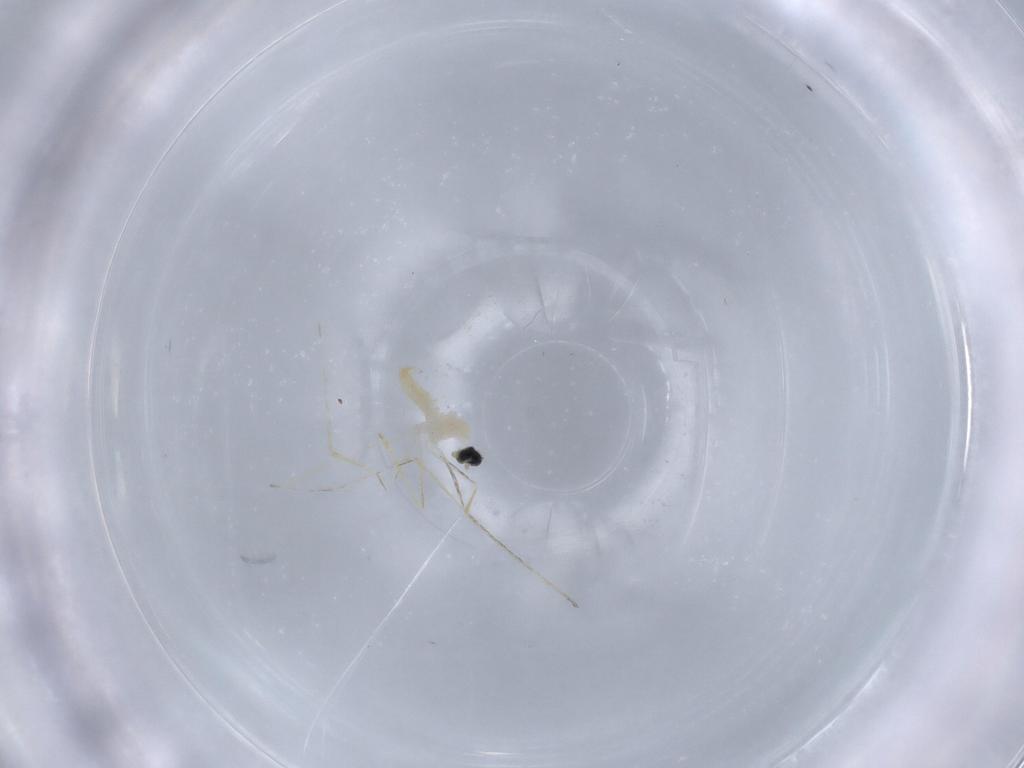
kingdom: Animalia
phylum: Arthropoda
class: Insecta
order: Diptera
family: Cecidomyiidae
